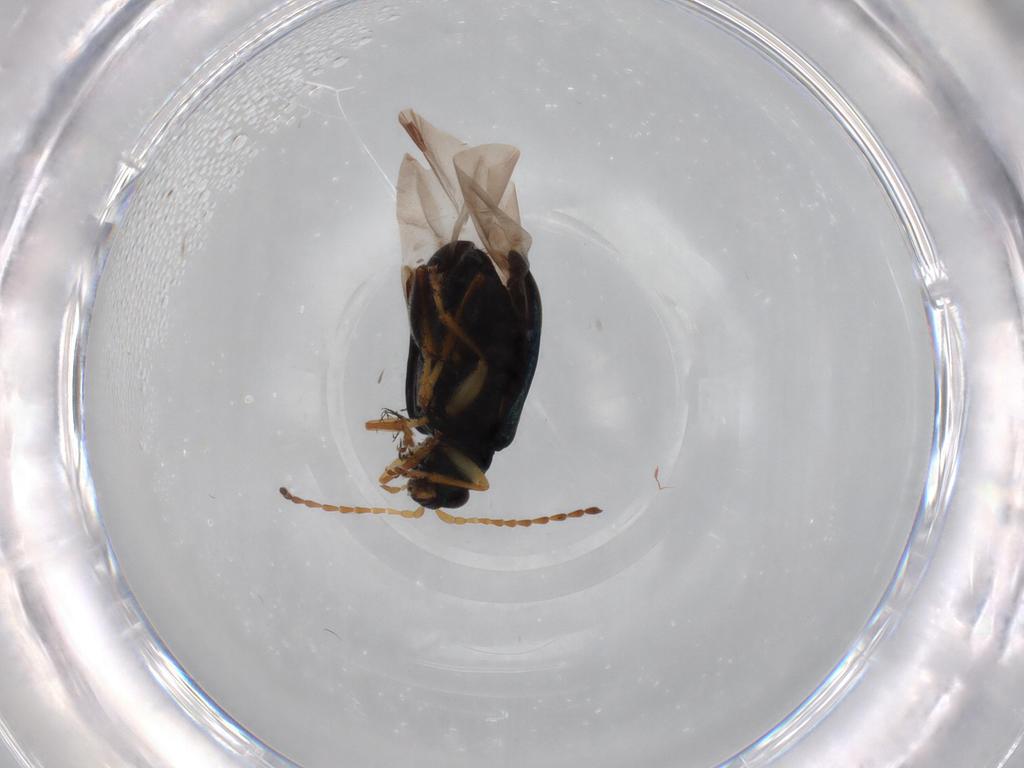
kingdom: Animalia
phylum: Arthropoda
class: Insecta
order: Coleoptera
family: Chrysomelidae
